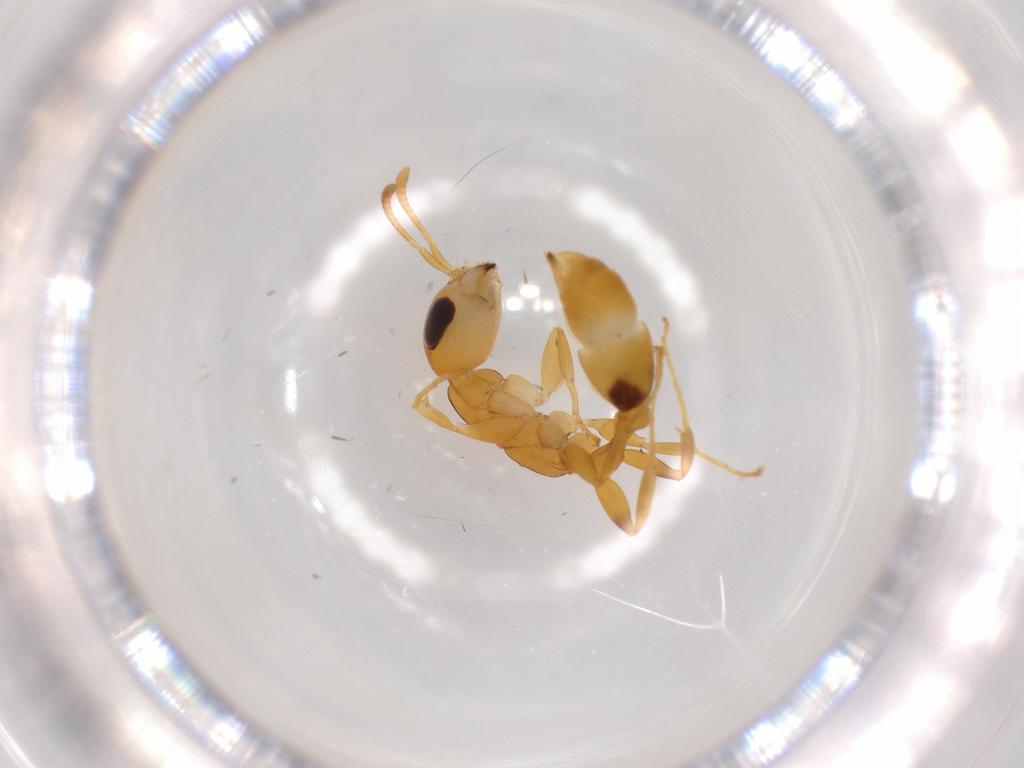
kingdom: Animalia
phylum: Arthropoda
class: Insecta
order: Hymenoptera
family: Formicidae
